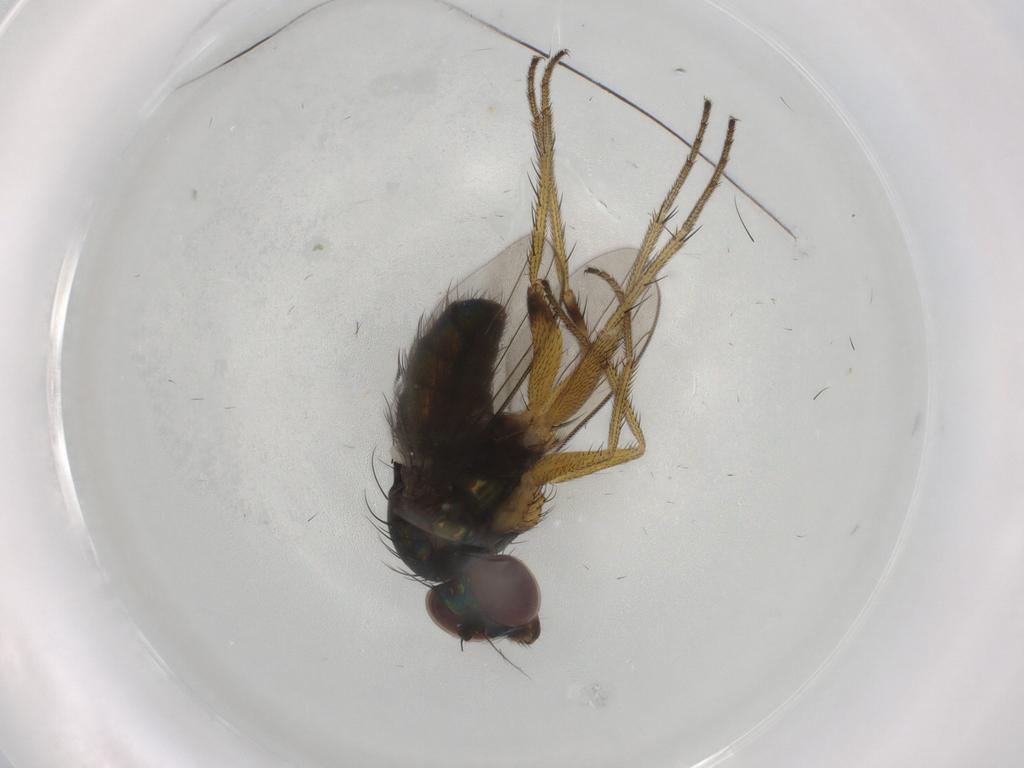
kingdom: Animalia
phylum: Arthropoda
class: Insecta
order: Diptera
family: Dolichopodidae
